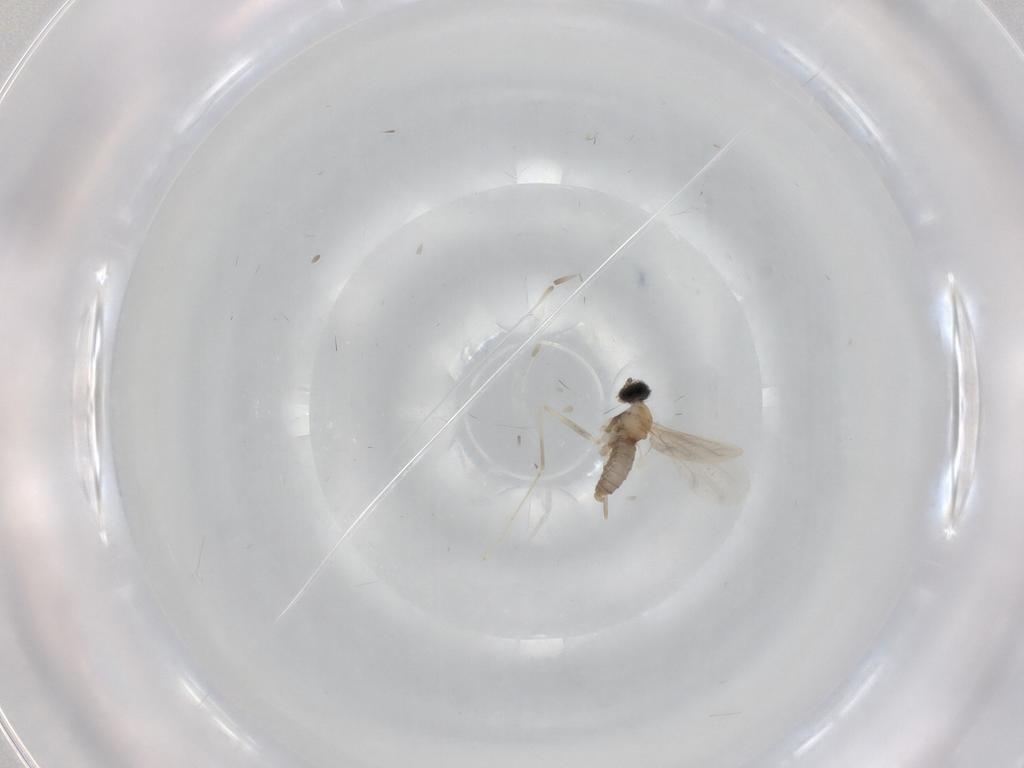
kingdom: Animalia
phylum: Arthropoda
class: Insecta
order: Diptera
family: Cecidomyiidae
